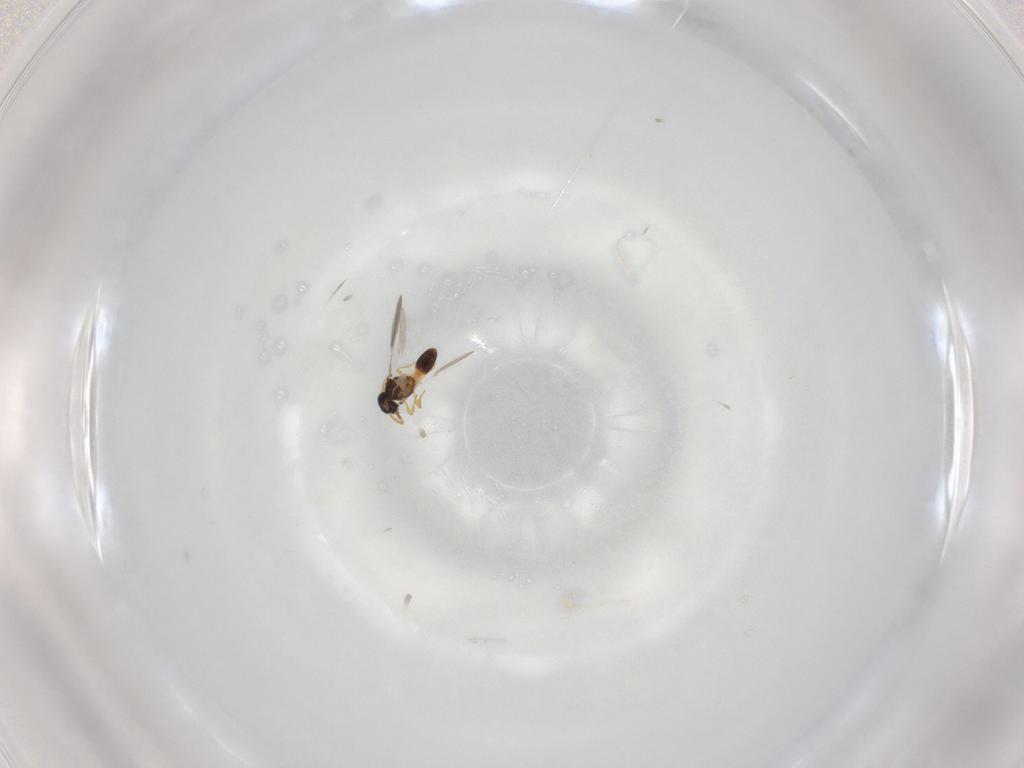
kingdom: Animalia
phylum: Arthropoda
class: Insecta
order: Hymenoptera
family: Platygastridae
